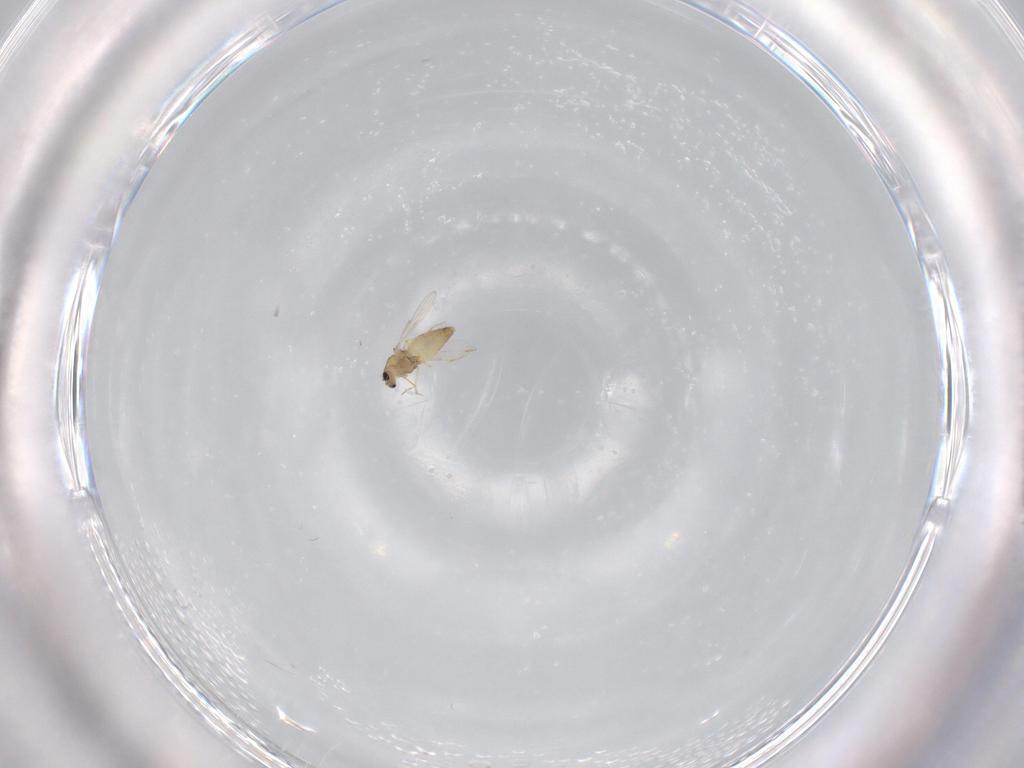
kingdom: Animalia
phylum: Arthropoda
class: Insecta
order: Diptera
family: Chironomidae
